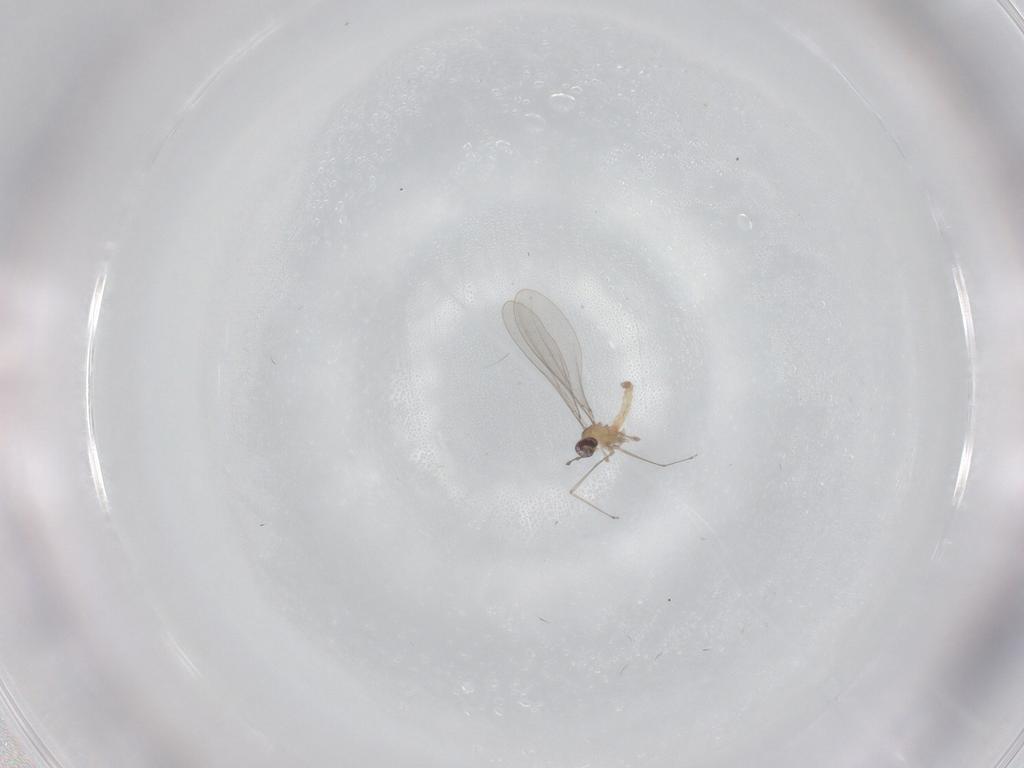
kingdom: Animalia
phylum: Arthropoda
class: Insecta
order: Diptera
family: Cecidomyiidae
